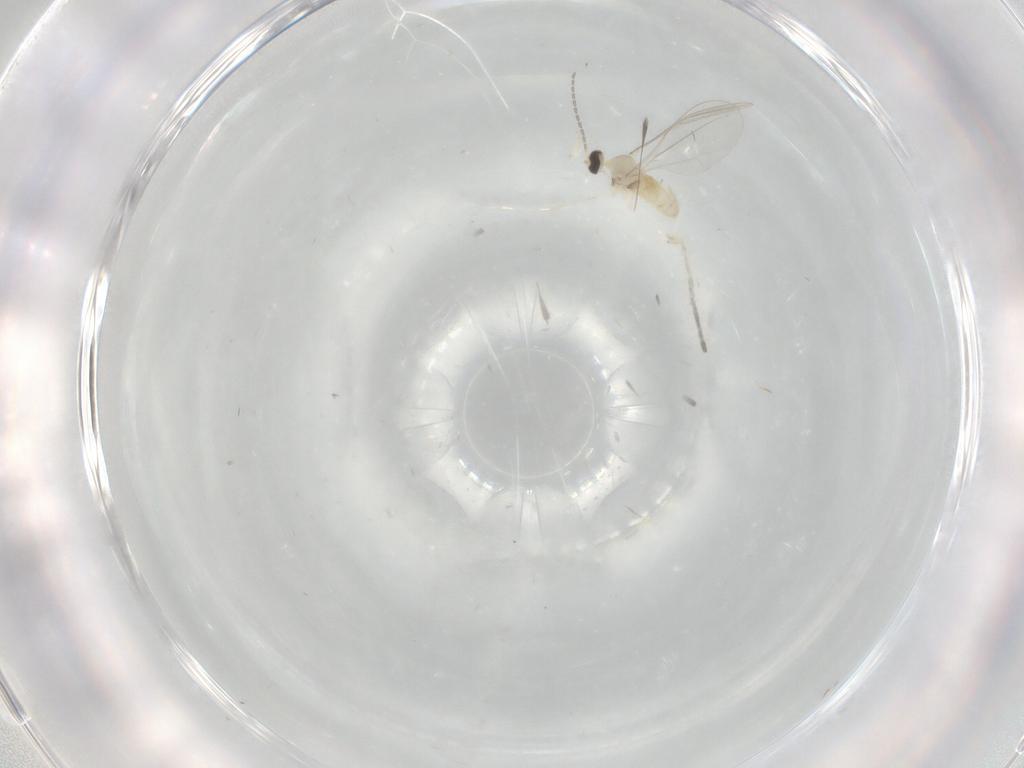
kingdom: Animalia
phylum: Arthropoda
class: Insecta
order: Diptera
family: Cecidomyiidae
